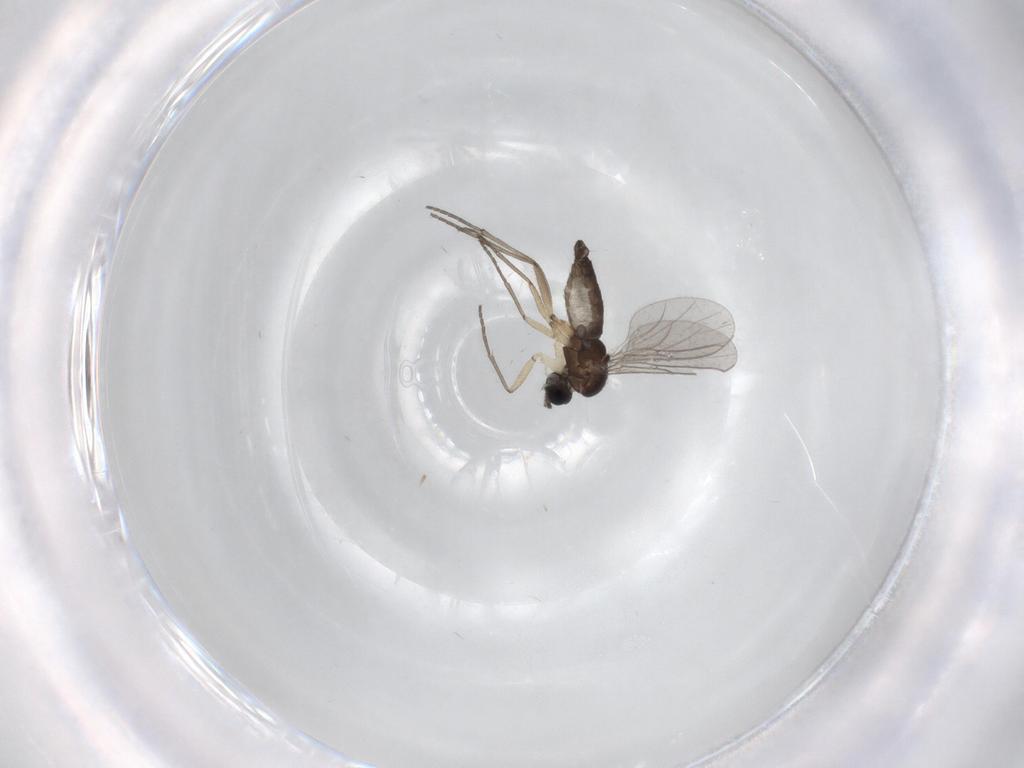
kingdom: Animalia
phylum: Arthropoda
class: Insecta
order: Diptera
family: Sciaridae
